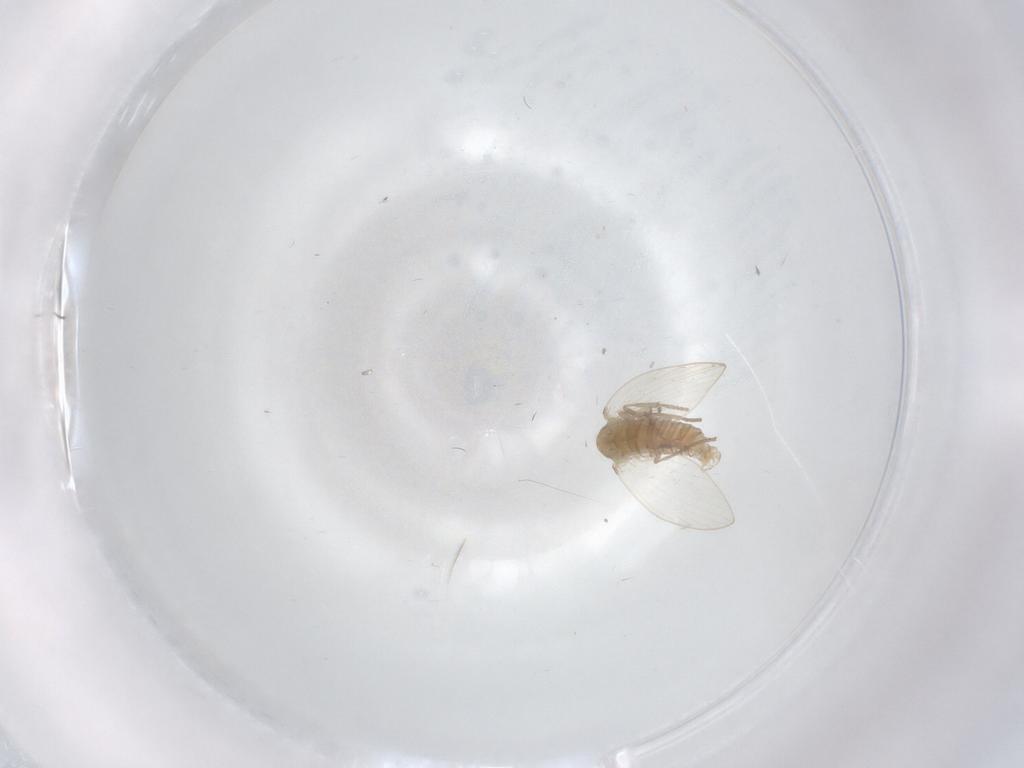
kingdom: Animalia
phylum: Arthropoda
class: Insecta
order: Diptera
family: Psychodidae
